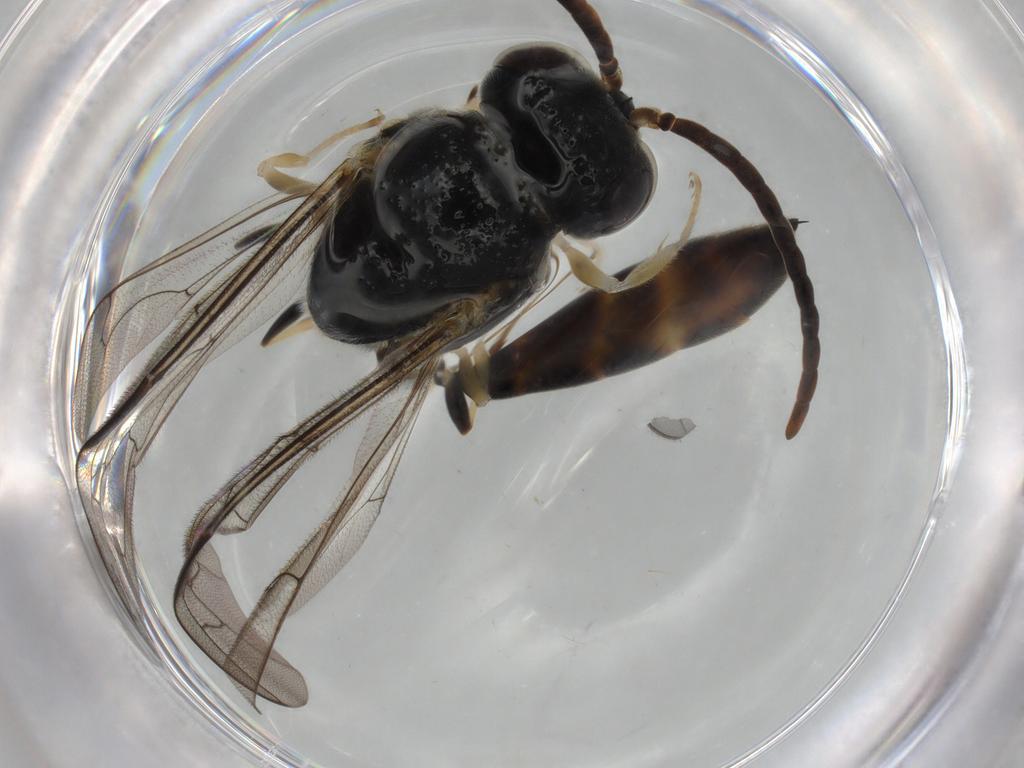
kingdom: Animalia
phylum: Arthropoda
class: Insecta
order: Hymenoptera
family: Psenidae
